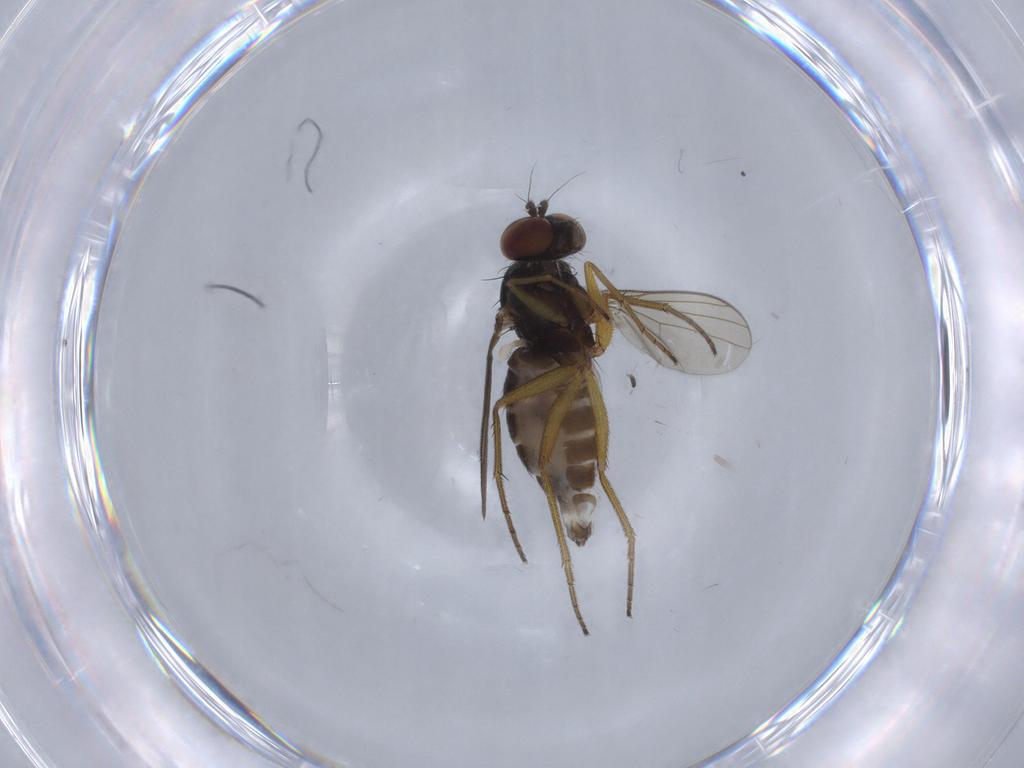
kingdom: Animalia
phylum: Arthropoda
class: Insecta
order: Diptera
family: Dolichopodidae
